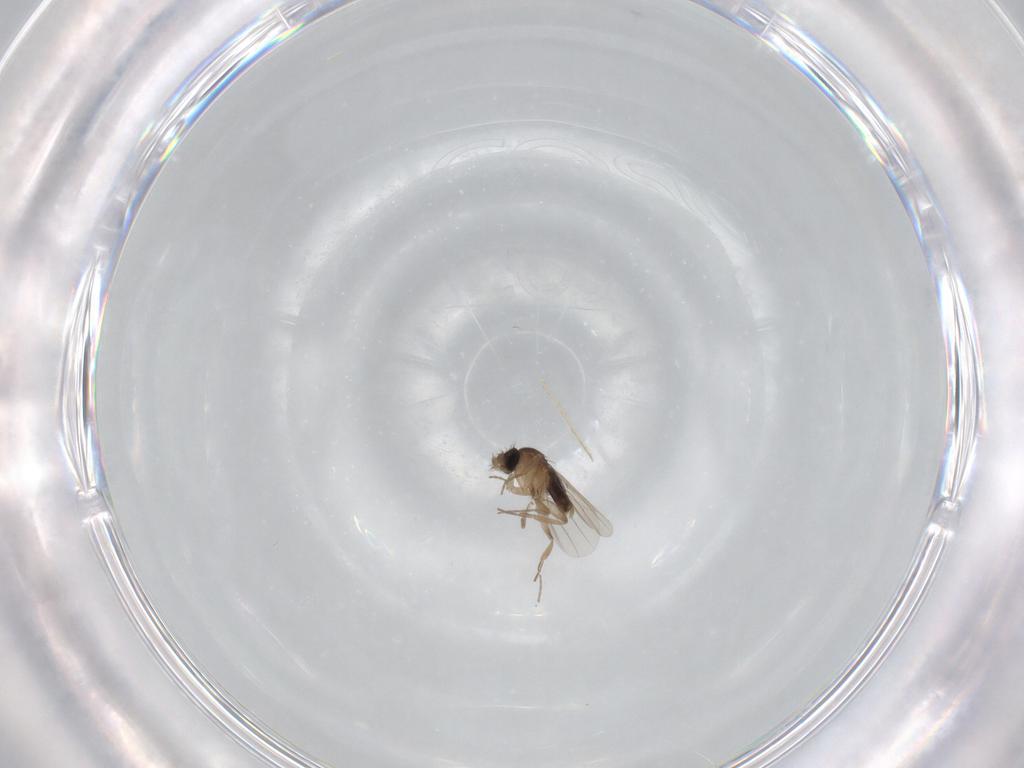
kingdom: Animalia
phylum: Arthropoda
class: Insecta
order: Diptera
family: Phoridae
